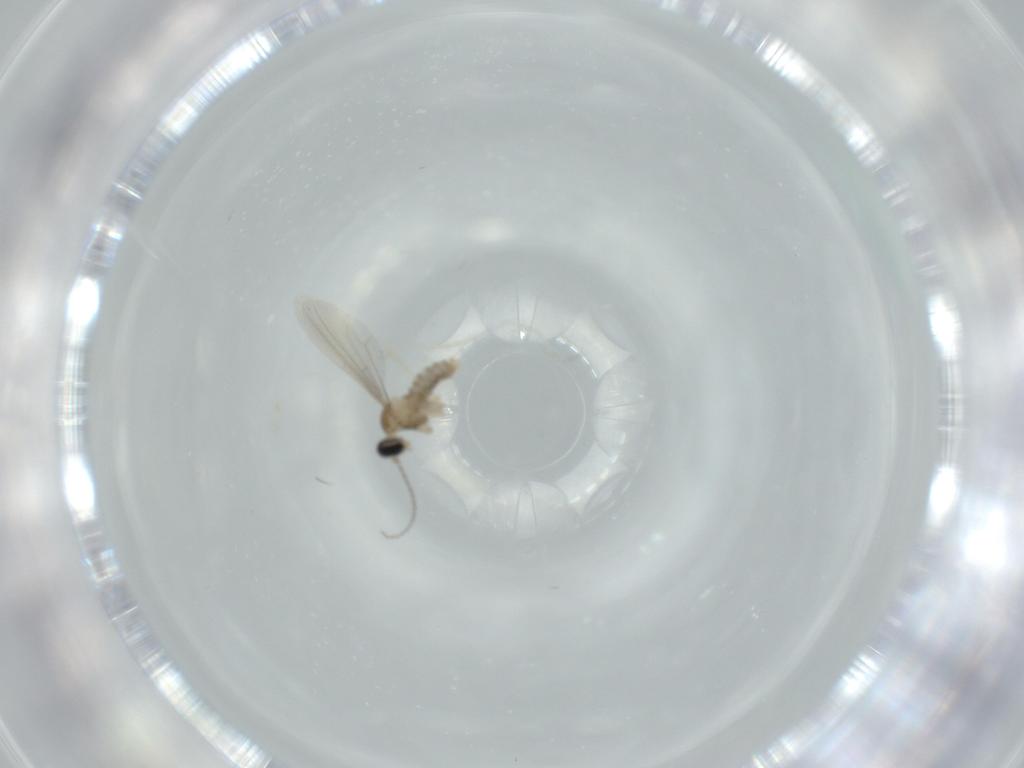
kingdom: Animalia
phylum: Arthropoda
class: Insecta
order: Diptera
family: Cecidomyiidae
